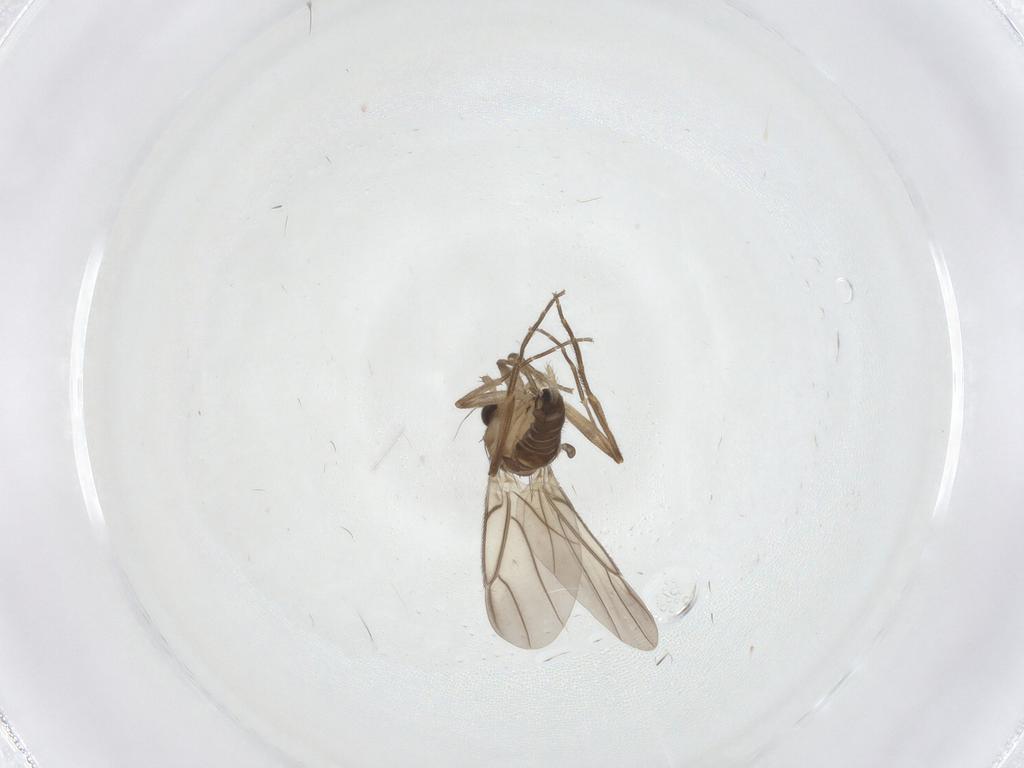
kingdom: Animalia
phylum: Arthropoda
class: Insecta
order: Diptera
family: Phoridae
